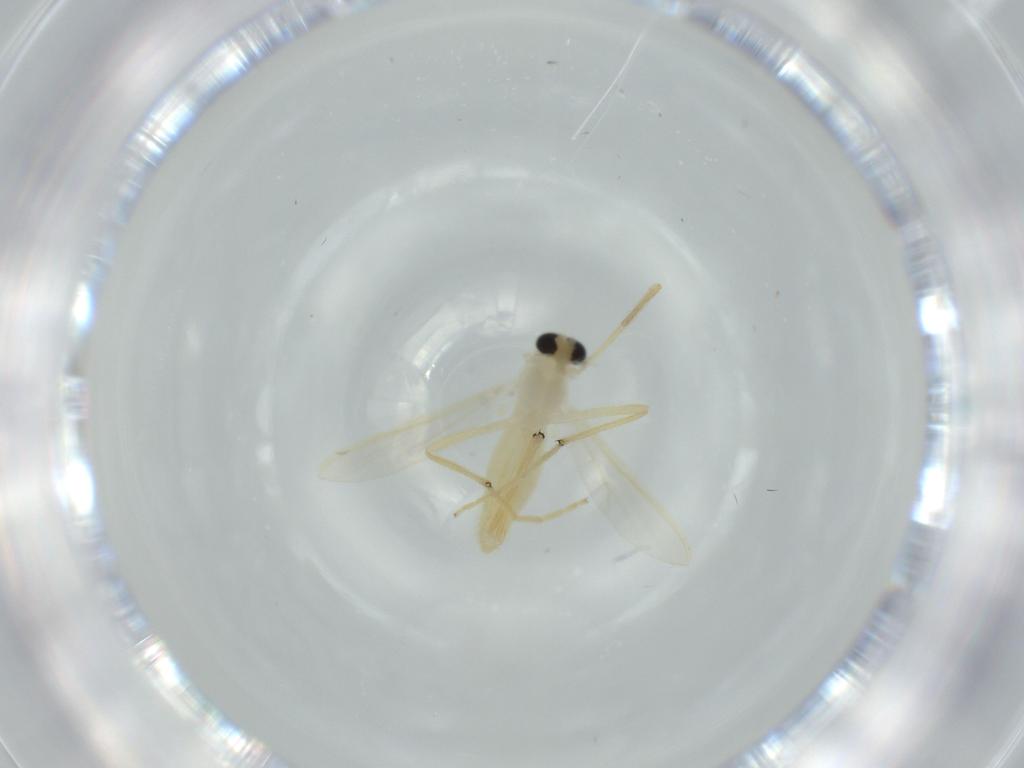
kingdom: Animalia
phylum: Arthropoda
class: Insecta
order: Diptera
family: Chironomidae
